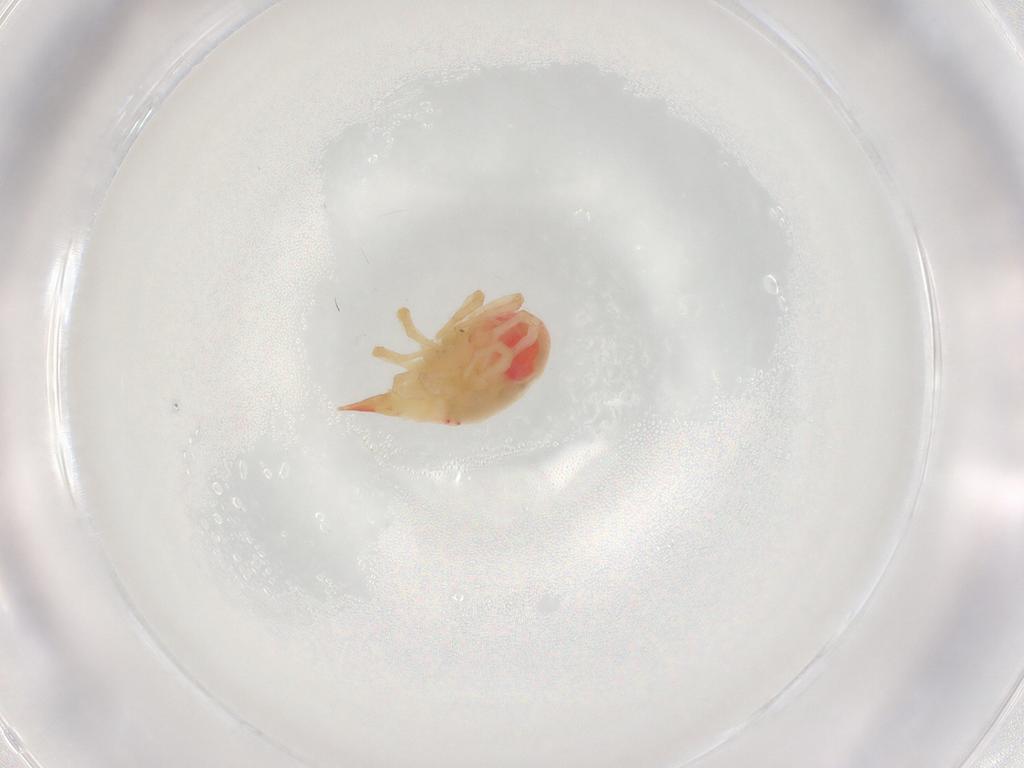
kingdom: Animalia
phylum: Arthropoda
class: Arachnida
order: Trombidiformes
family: Bdellidae
